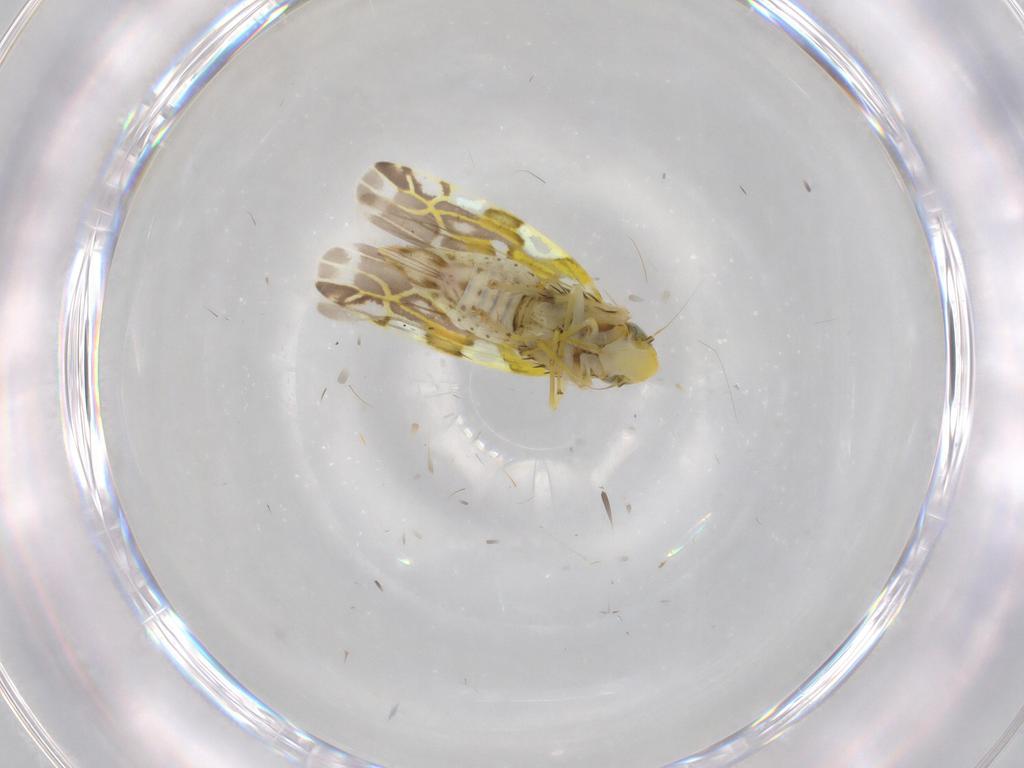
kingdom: Animalia
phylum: Arthropoda
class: Insecta
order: Hemiptera
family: Cicadellidae
